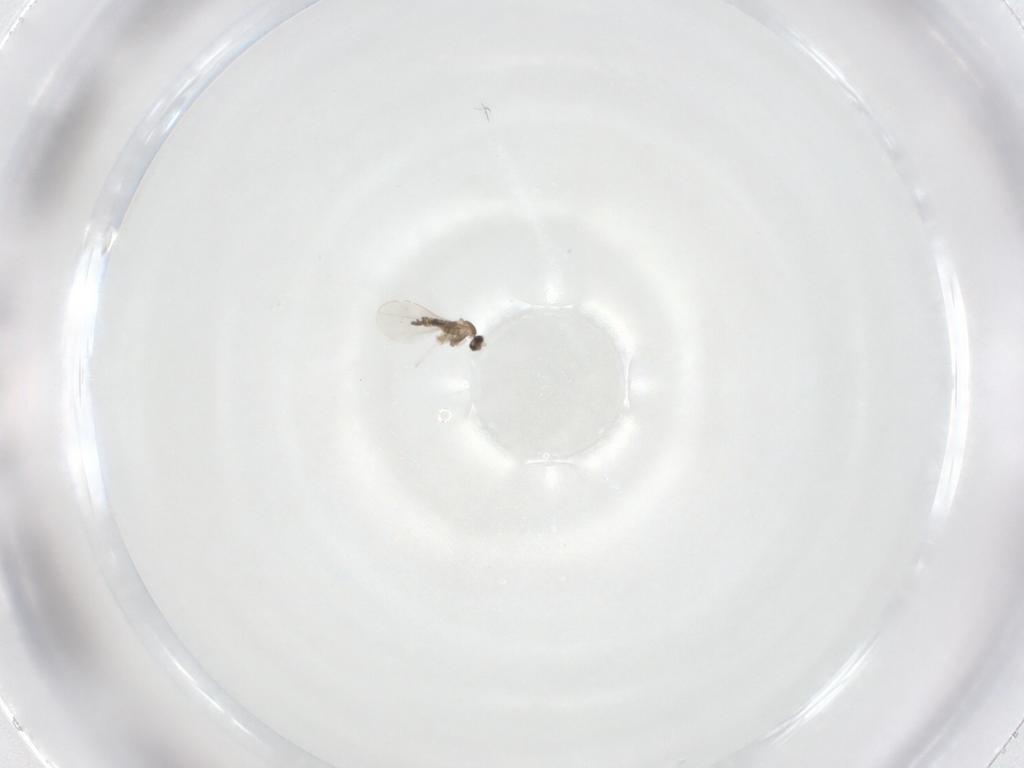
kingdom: Animalia
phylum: Arthropoda
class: Insecta
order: Diptera
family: Cecidomyiidae
